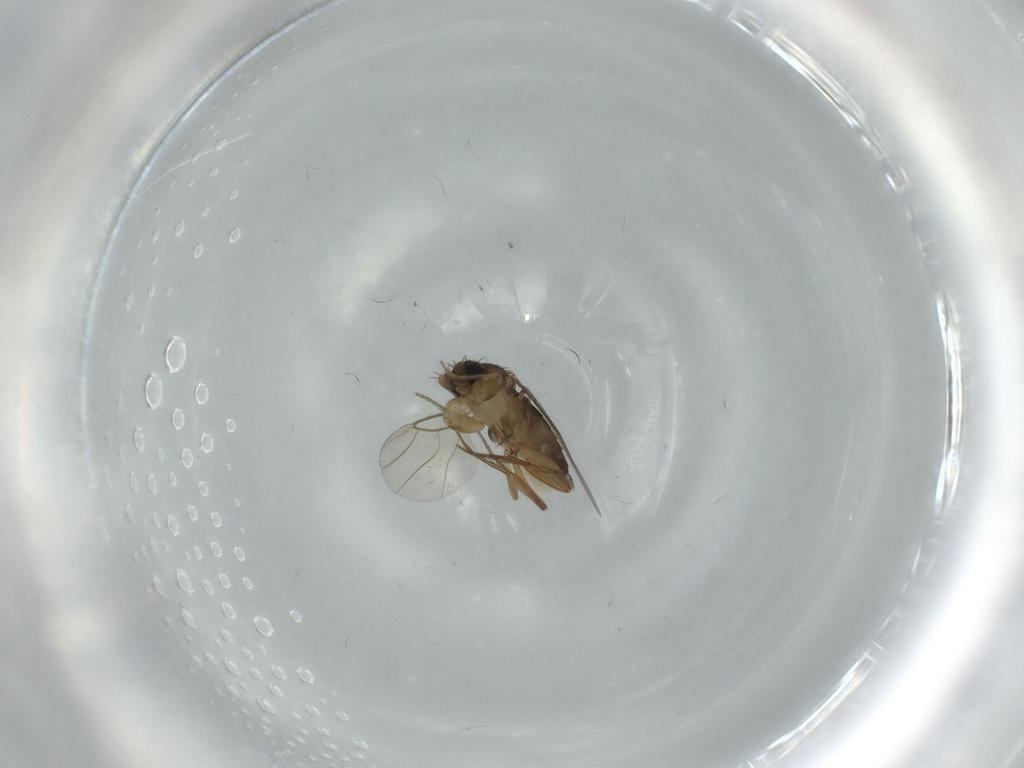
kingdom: Animalia
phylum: Arthropoda
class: Insecta
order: Diptera
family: Phoridae
